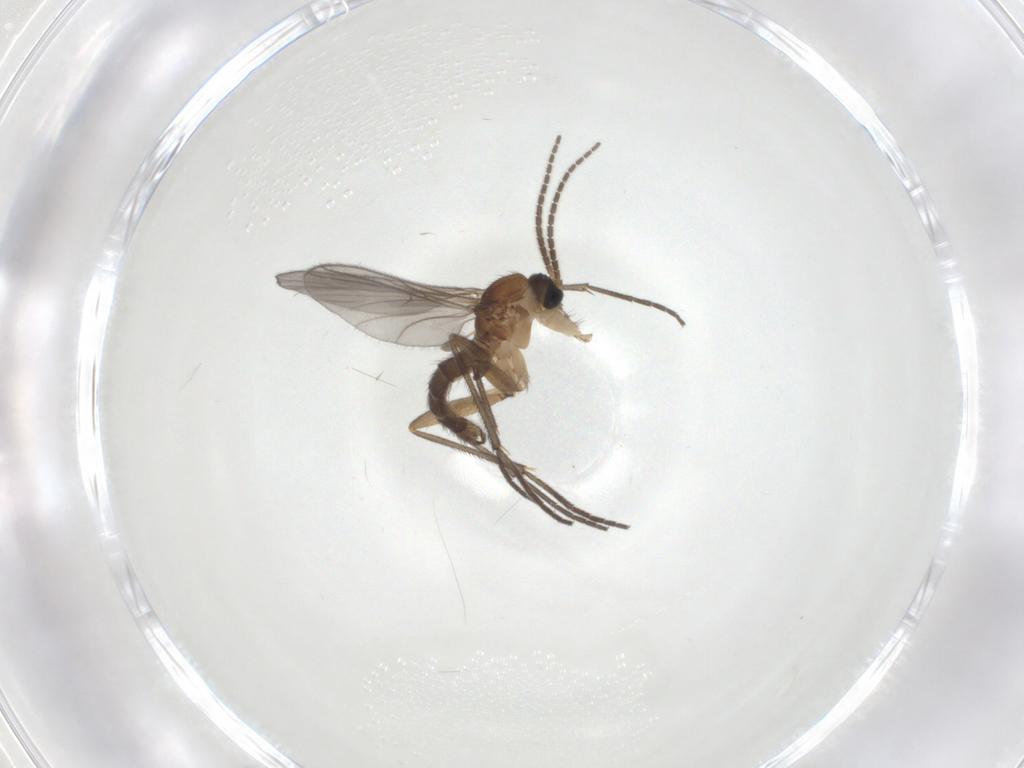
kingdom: Animalia
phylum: Arthropoda
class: Insecta
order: Diptera
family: Sciaridae
